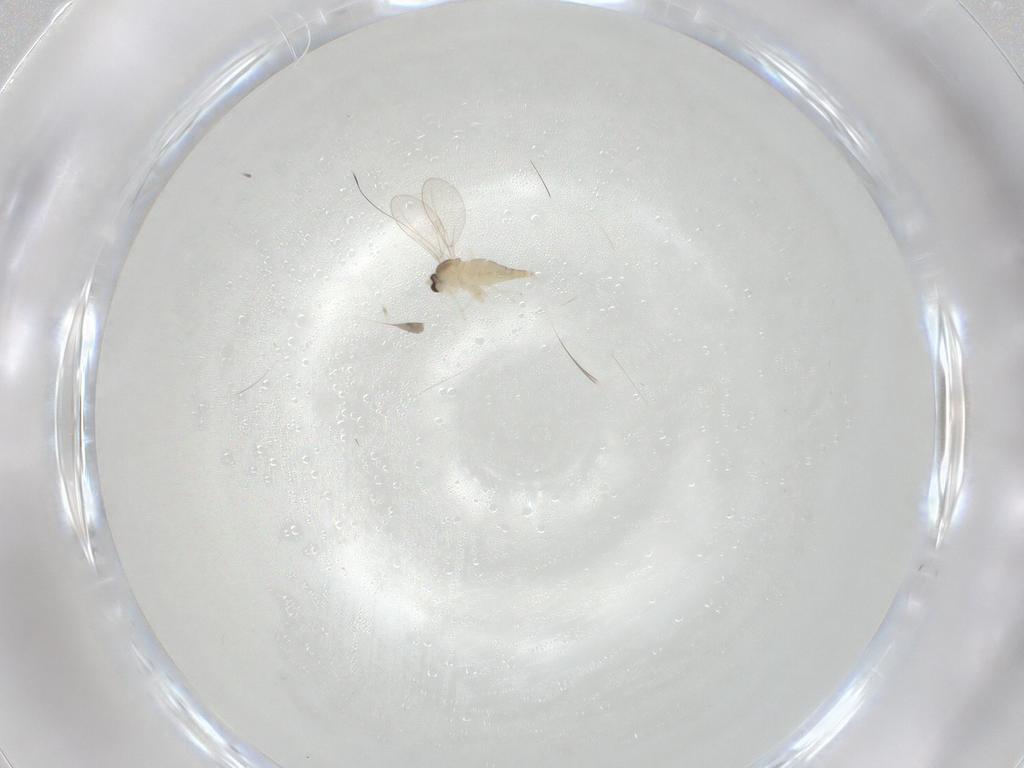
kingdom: Animalia
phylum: Arthropoda
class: Insecta
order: Diptera
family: Cecidomyiidae
